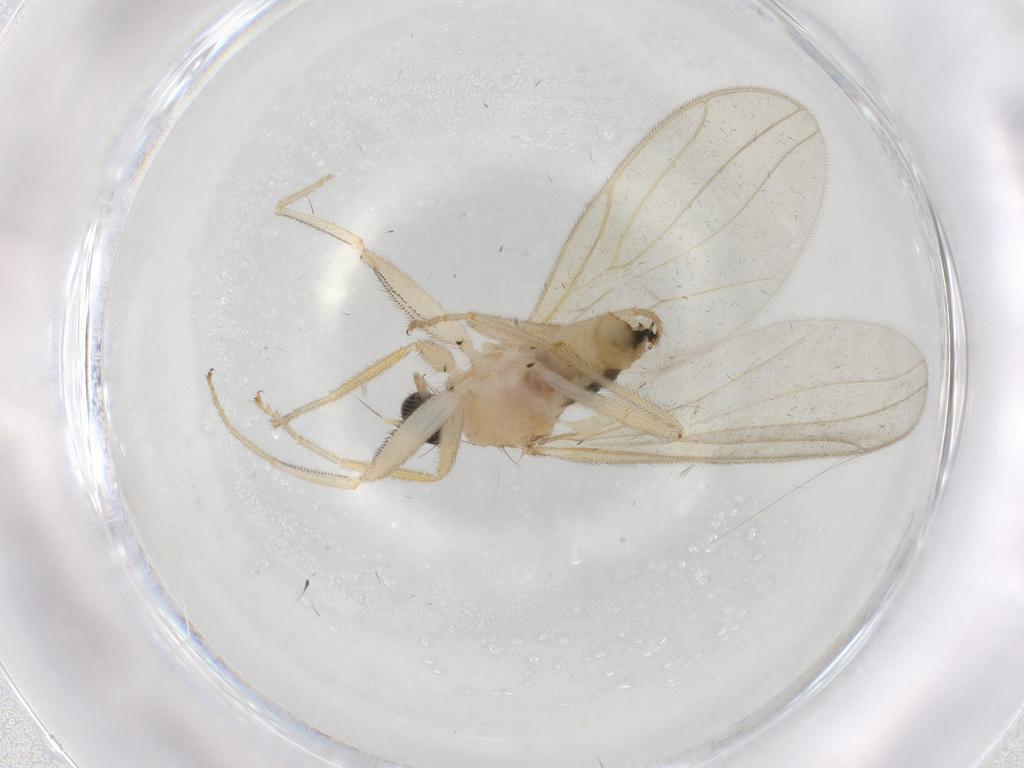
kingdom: Animalia
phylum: Arthropoda
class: Insecta
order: Diptera
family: Hybotidae
